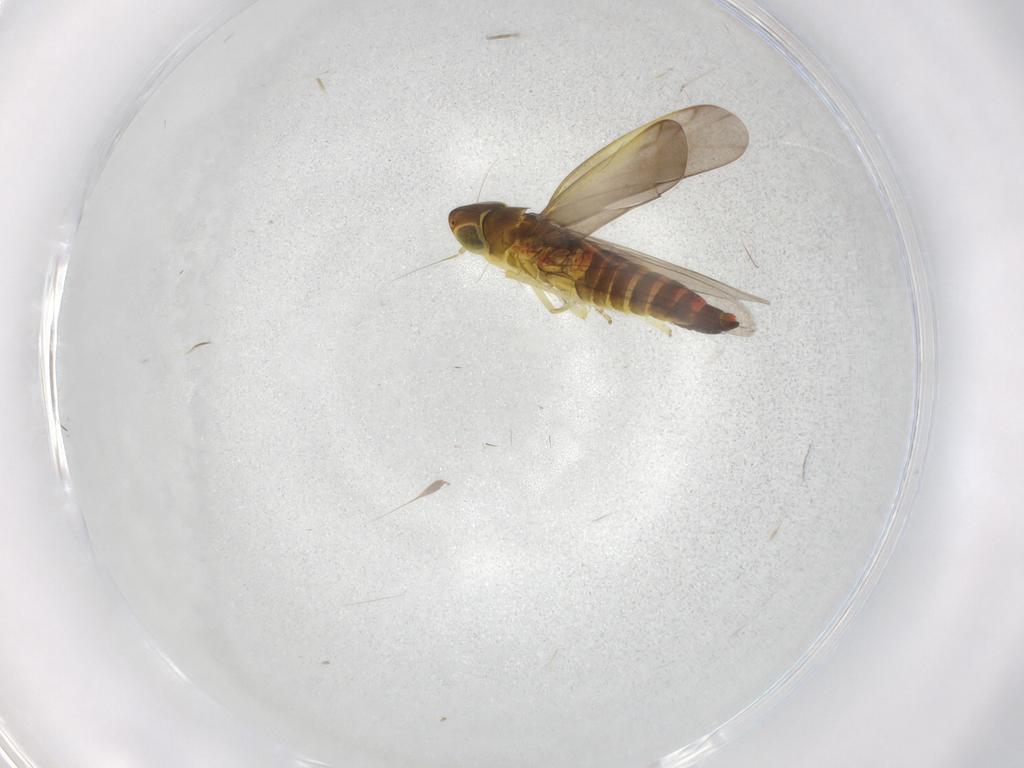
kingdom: Animalia
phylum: Arthropoda
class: Insecta
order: Hemiptera
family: Cicadellidae
